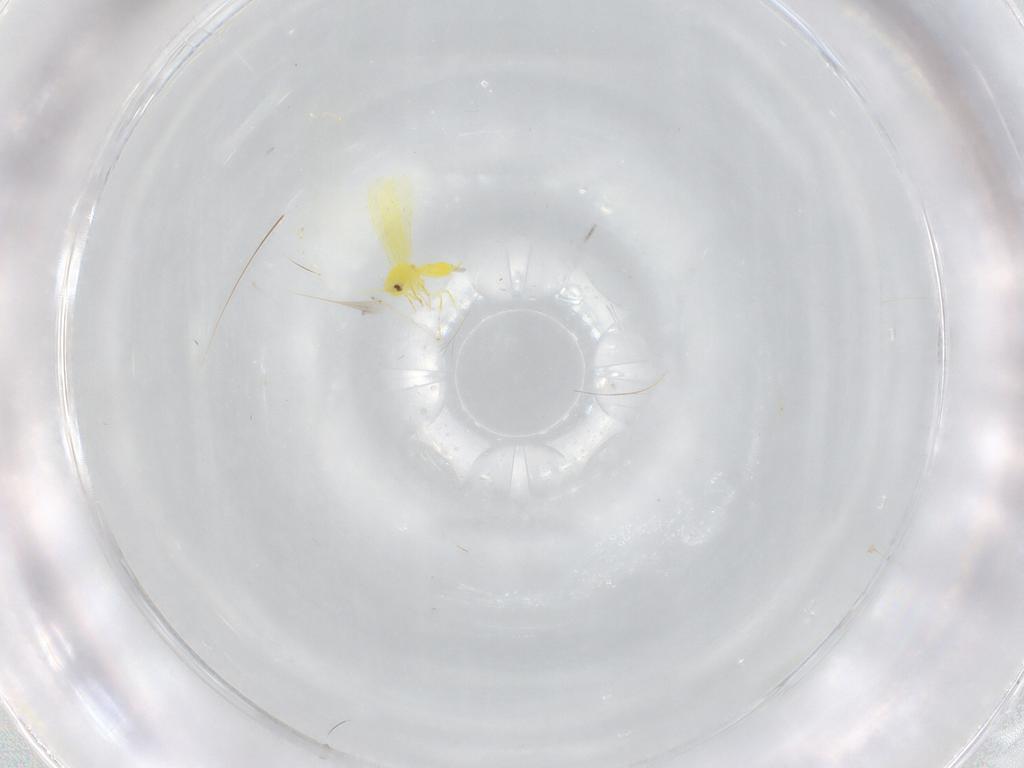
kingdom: Animalia
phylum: Arthropoda
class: Insecta
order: Hemiptera
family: Aleyrodidae
